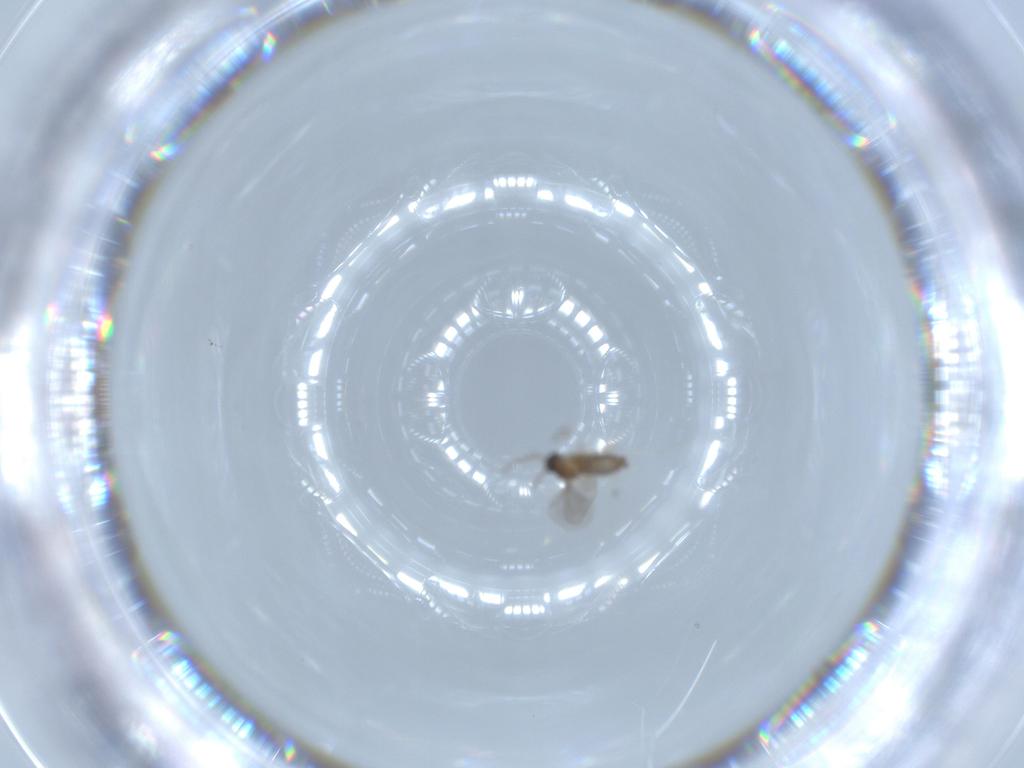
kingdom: Animalia
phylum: Arthropoda
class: Insecta
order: Diptera
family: Cecidomyiidae
